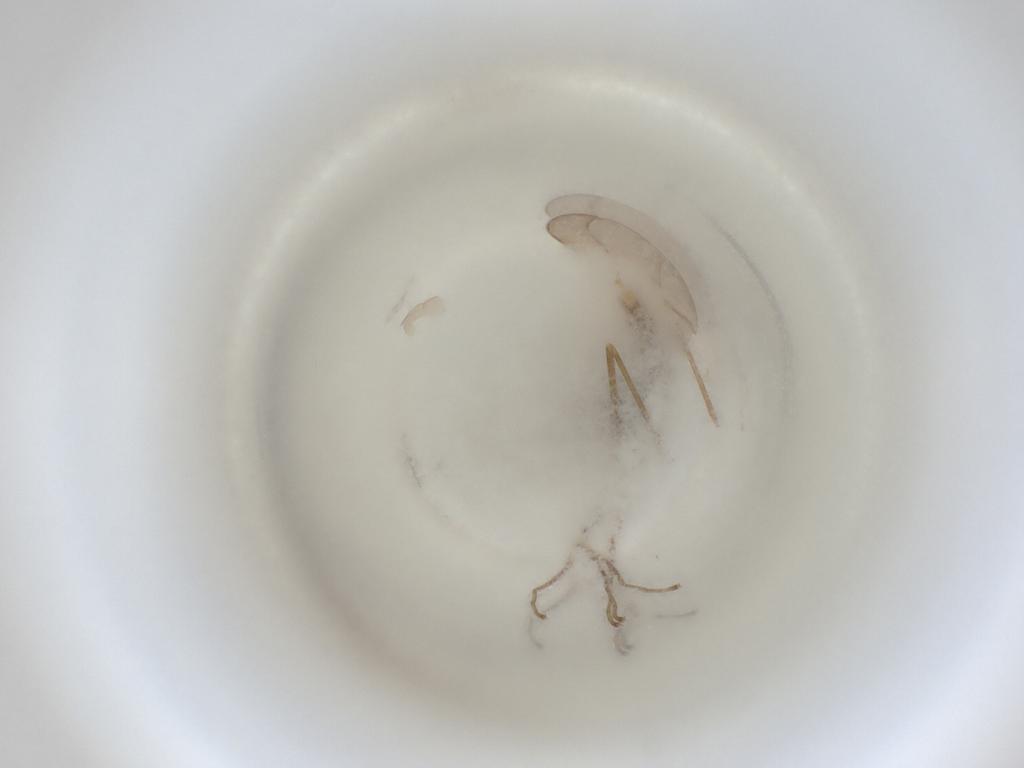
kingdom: Animalia
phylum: Arthropoda
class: Insecta
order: Diptera
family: Cecidomyiidae
